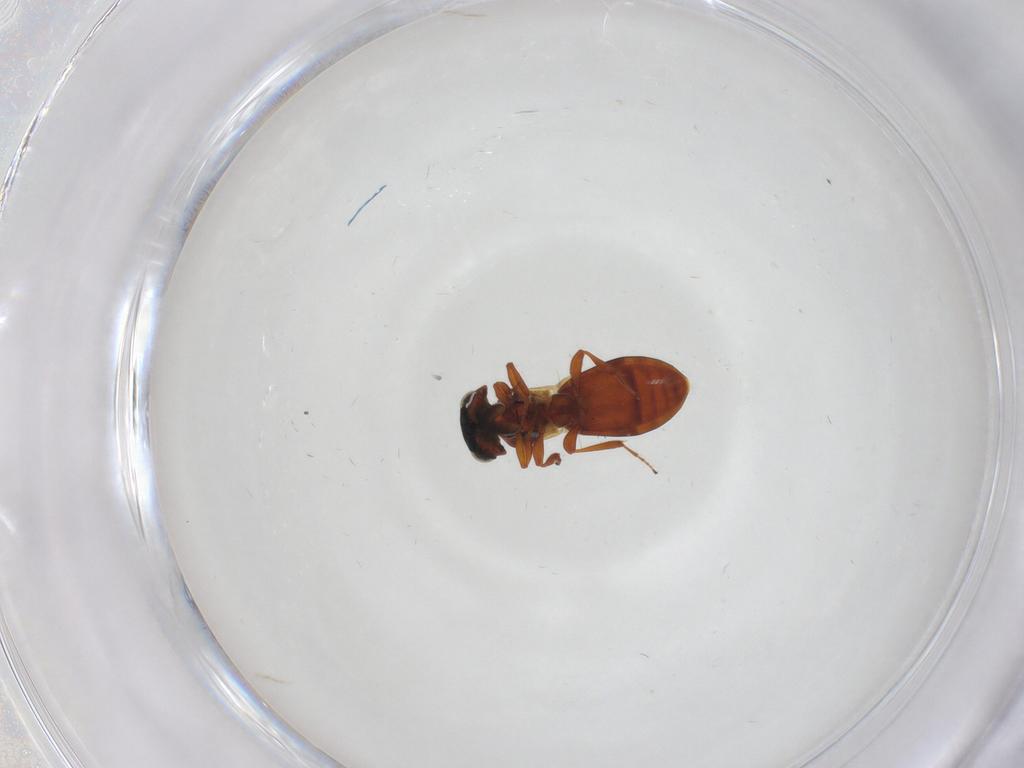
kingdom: Animalia
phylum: Arthropoda
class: Insecta
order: Hymenoptera
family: Platygastridae
